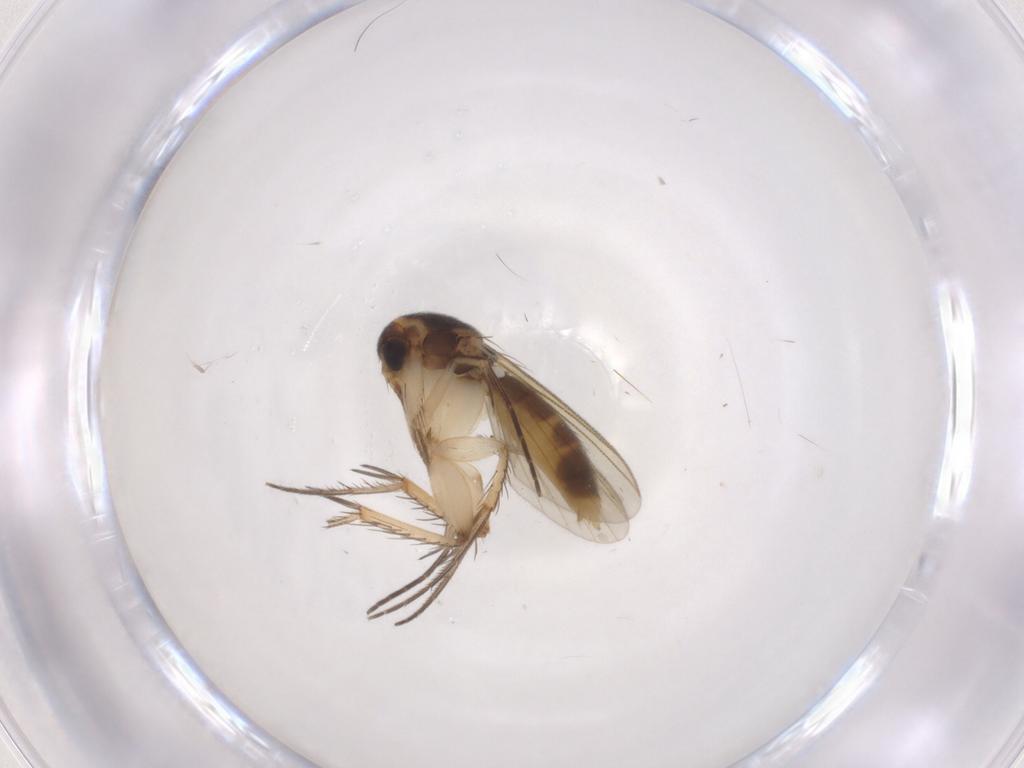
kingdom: Animalia
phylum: Arthropoda
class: Insecta
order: Diptera
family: Mycetophilidae
